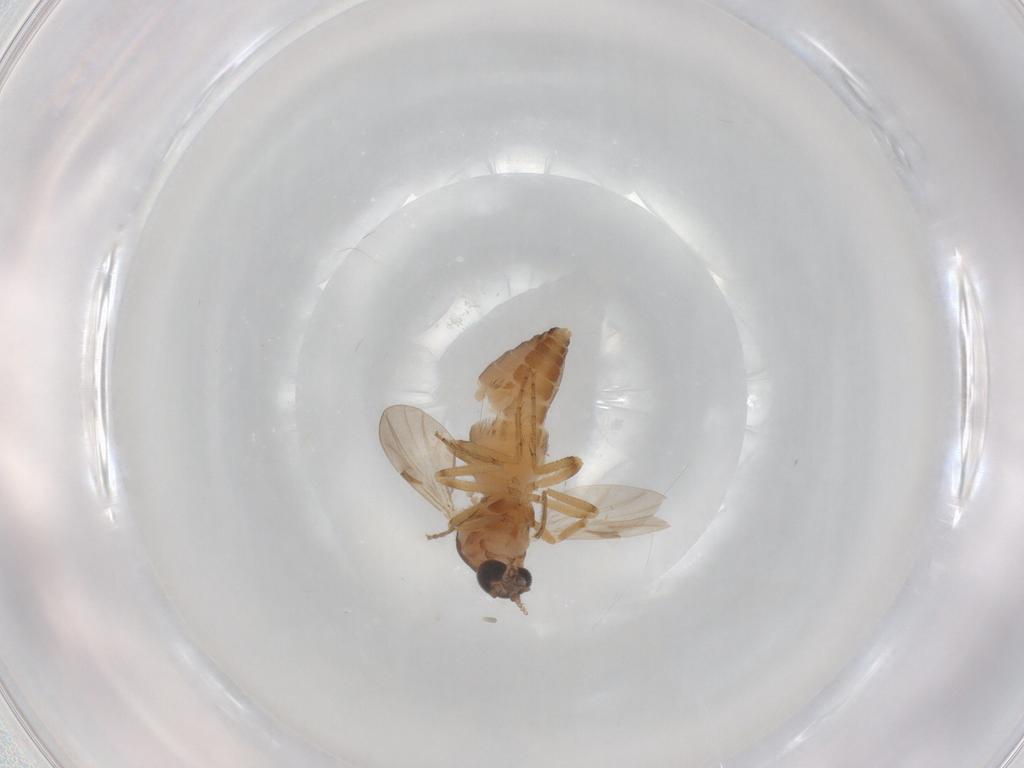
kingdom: Animalia
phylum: Arthropoda
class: Insecta
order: Diptera
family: Ceratopogonidae
